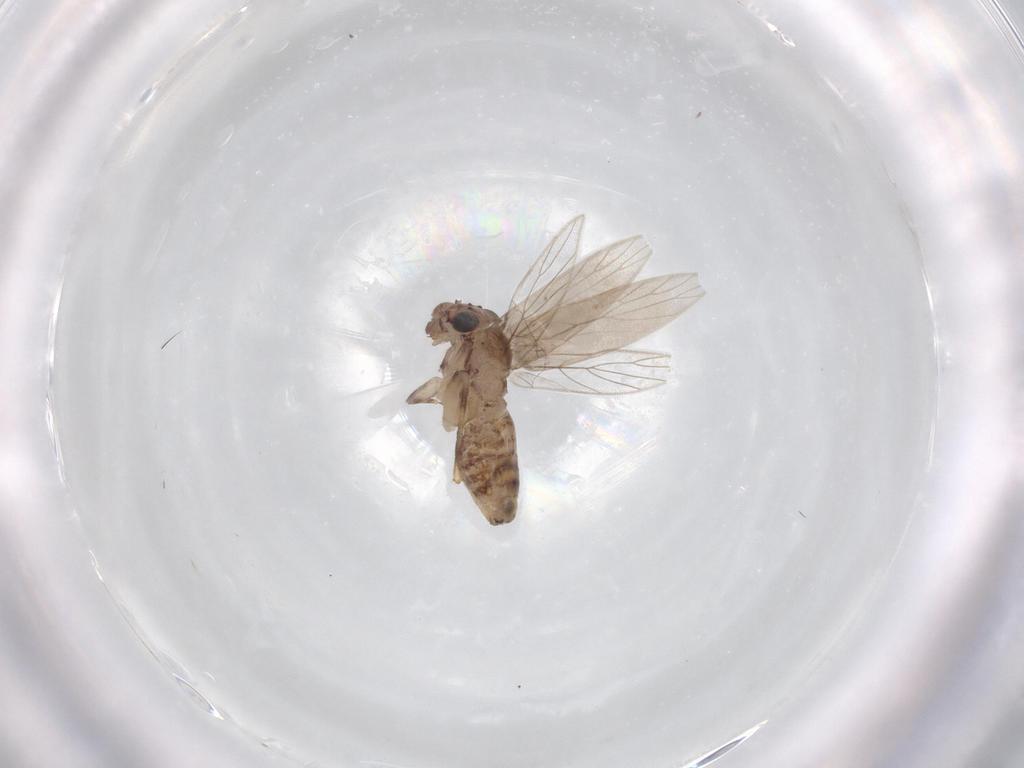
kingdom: Animalia
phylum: Arthropoda
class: Insecta
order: Psocodea
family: Lepidopsocidae
